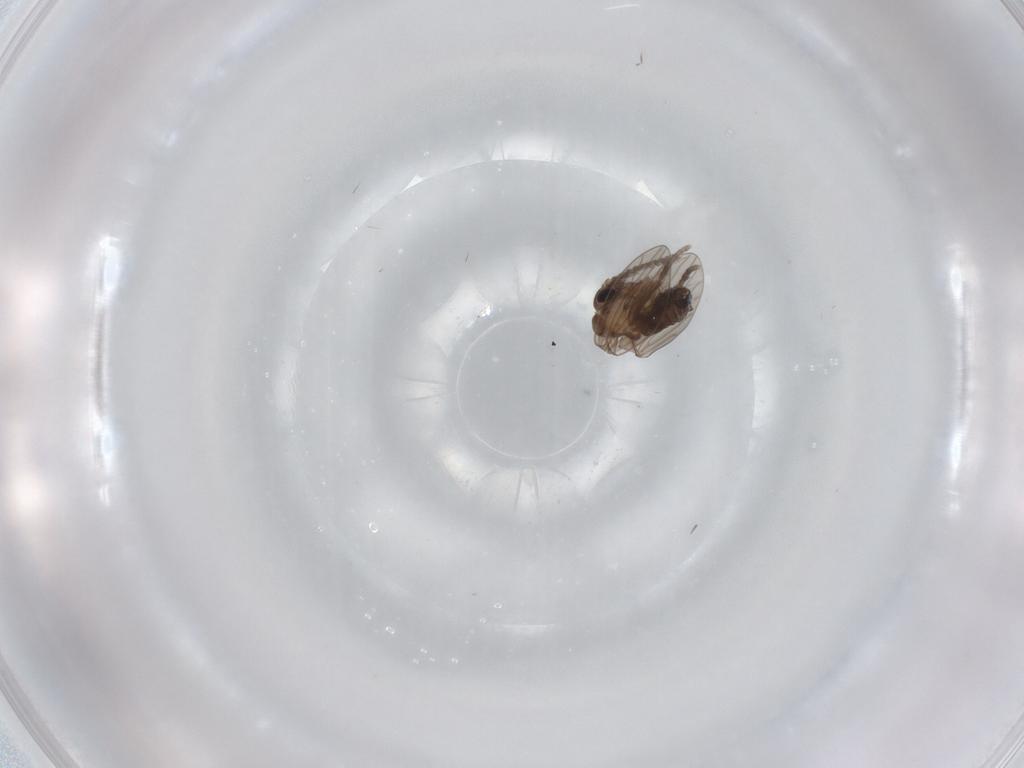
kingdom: Animalia
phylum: Arthropoda
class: Insecta
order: Diptera
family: Psychodidae
